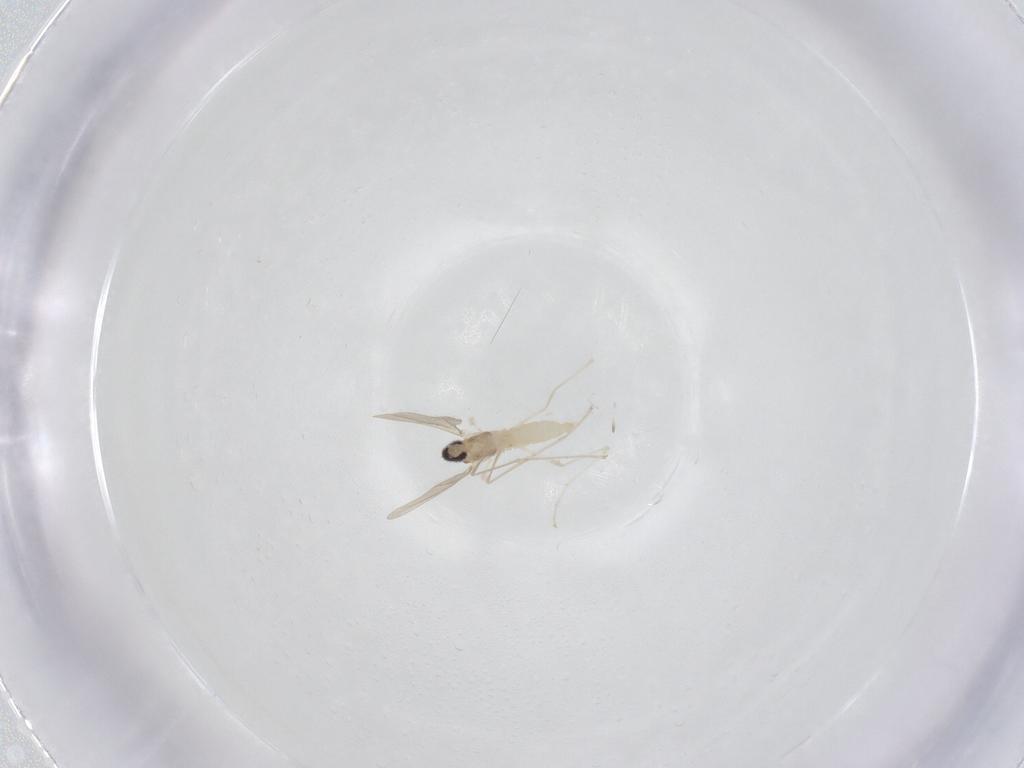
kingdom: Animalia
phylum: Arthropoda
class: Insecta
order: Diptera
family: Cecidomyiidae
